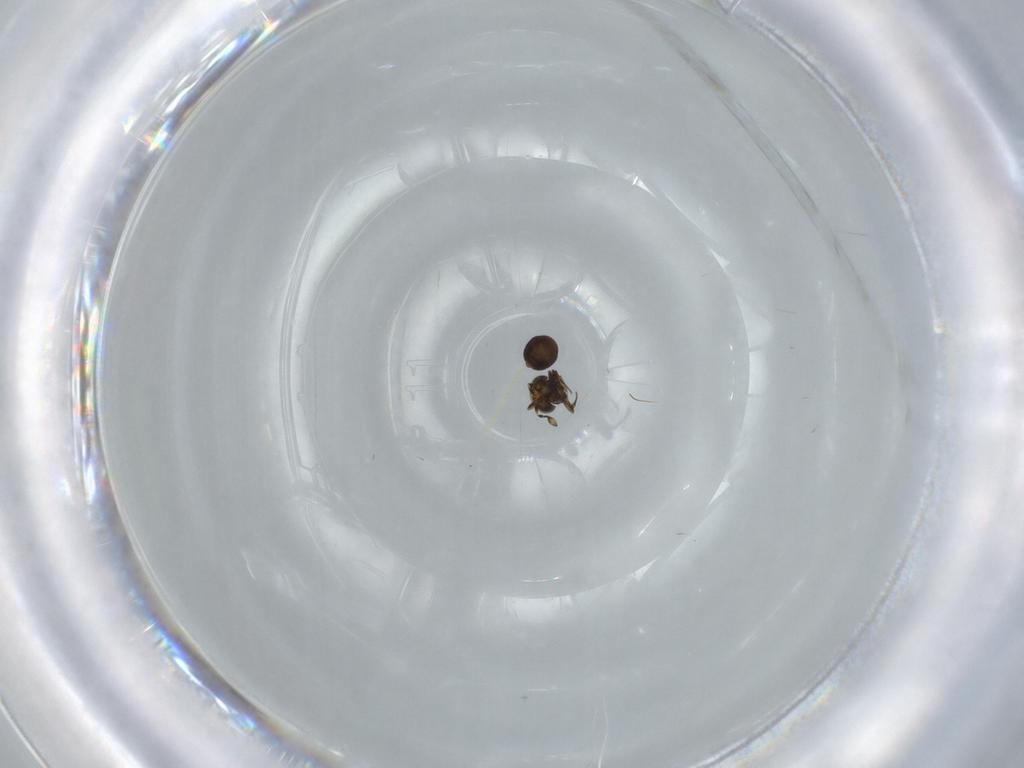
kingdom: Animalia
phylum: Arthropoda
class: Insecta
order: Hymenoptera
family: Scelionidae
